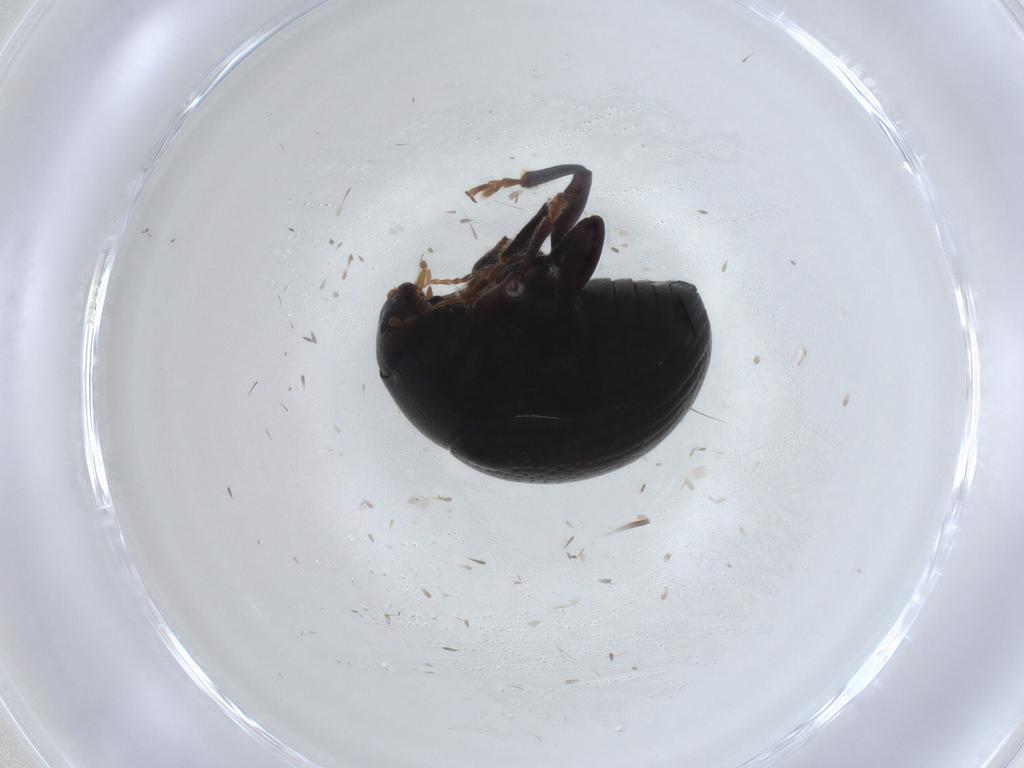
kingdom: Animalia
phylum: Arthropoda
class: Insecta
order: Coleoptera
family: Chrysomelidae
